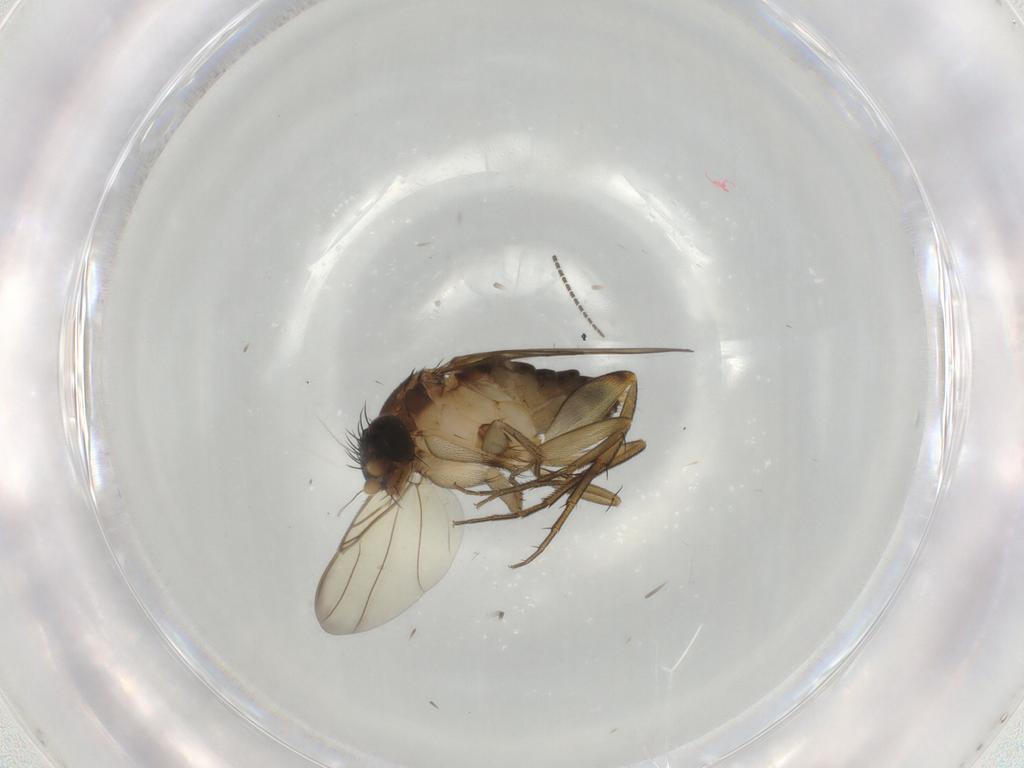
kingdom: Animalia
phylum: Arthropoda
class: Insecta
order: Diptera
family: Phoridae
